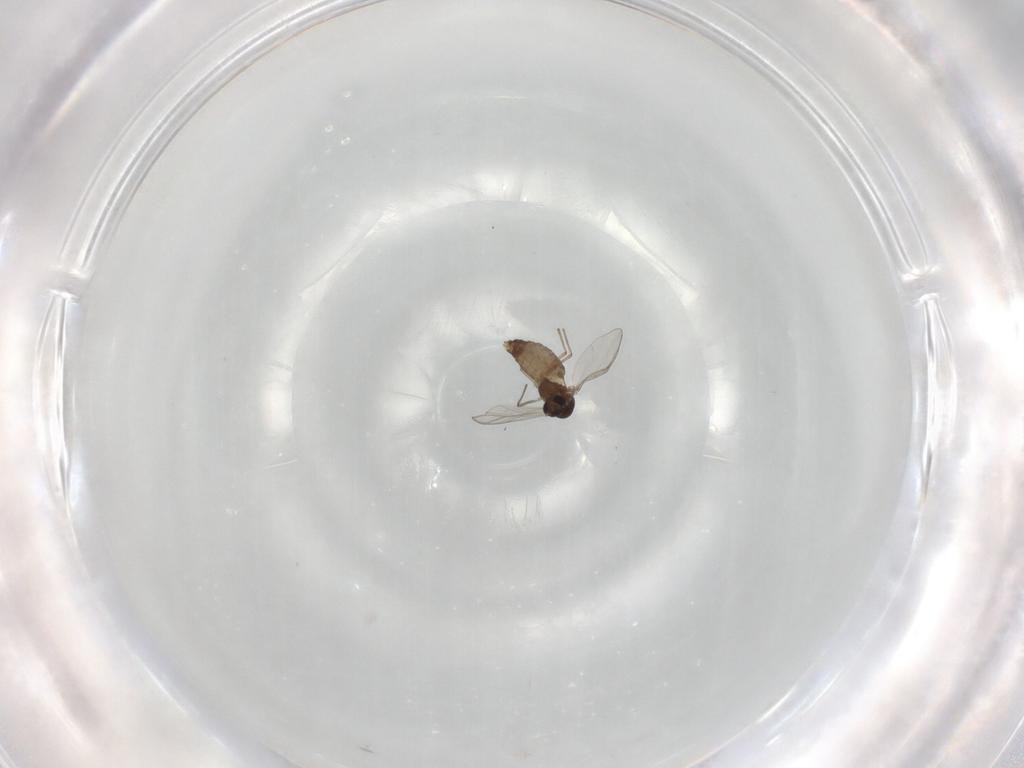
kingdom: Animalia
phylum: Arthropoda
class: Insecta
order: Diptera
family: Chironomidae
